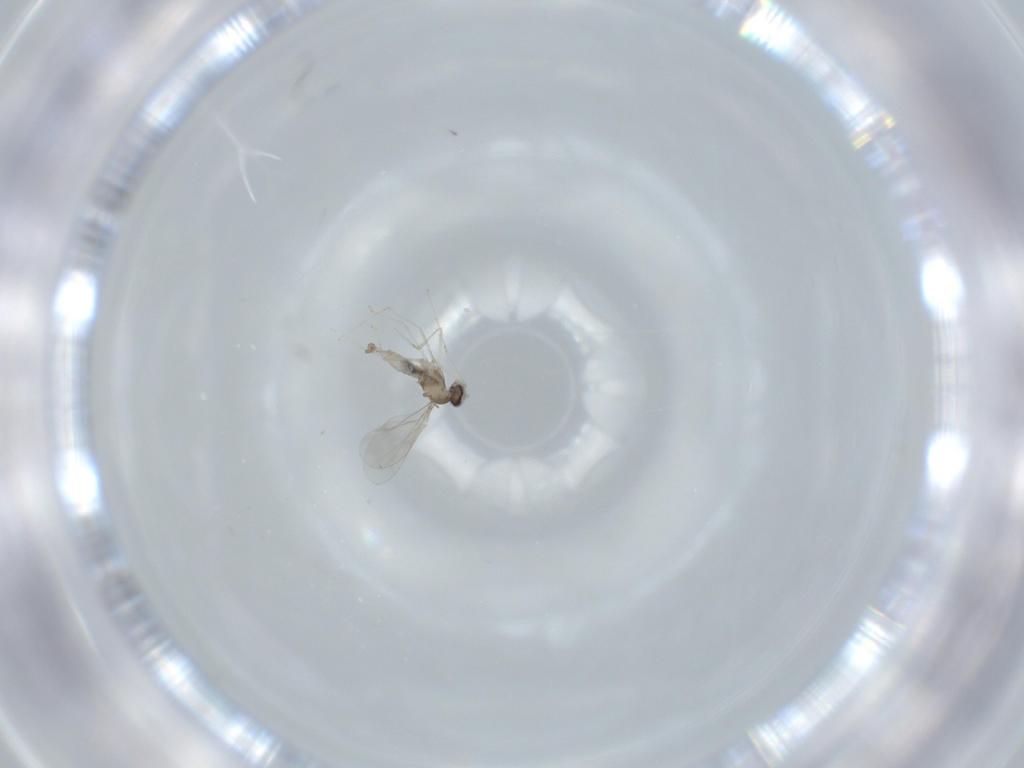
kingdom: Animalia
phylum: Arthropoda
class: Insecta
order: Diptera
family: Cecidomyiidae
